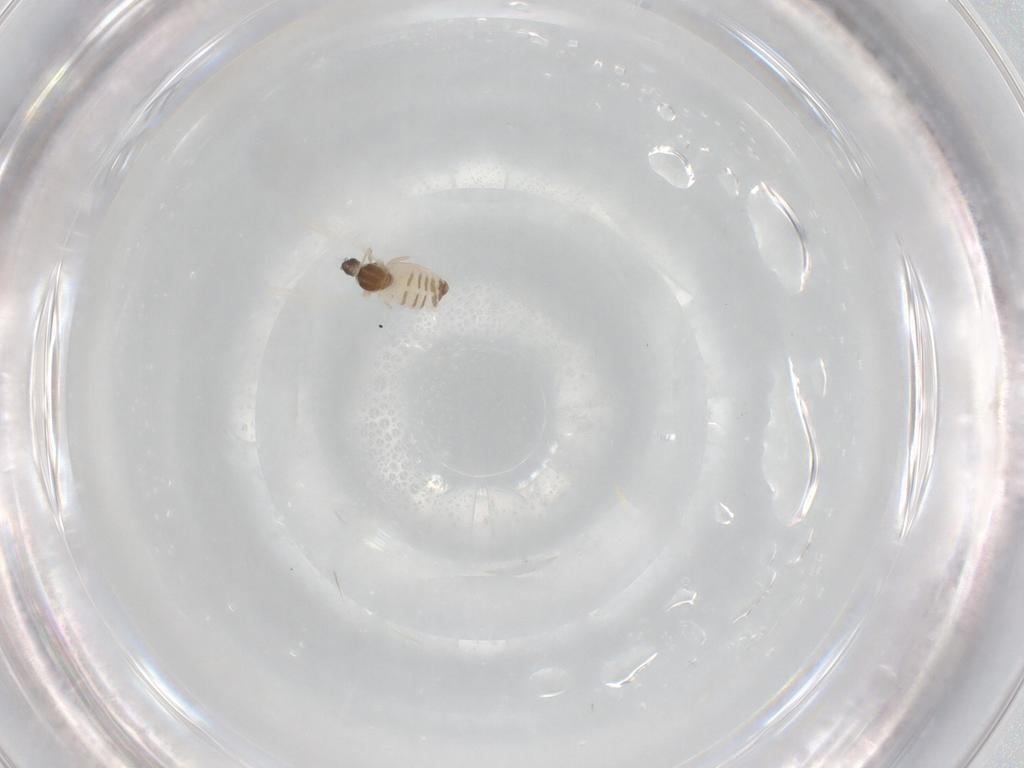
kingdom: Animalia
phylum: Arthropoda
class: Insecta
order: Diptera
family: Cecidomyiidae
